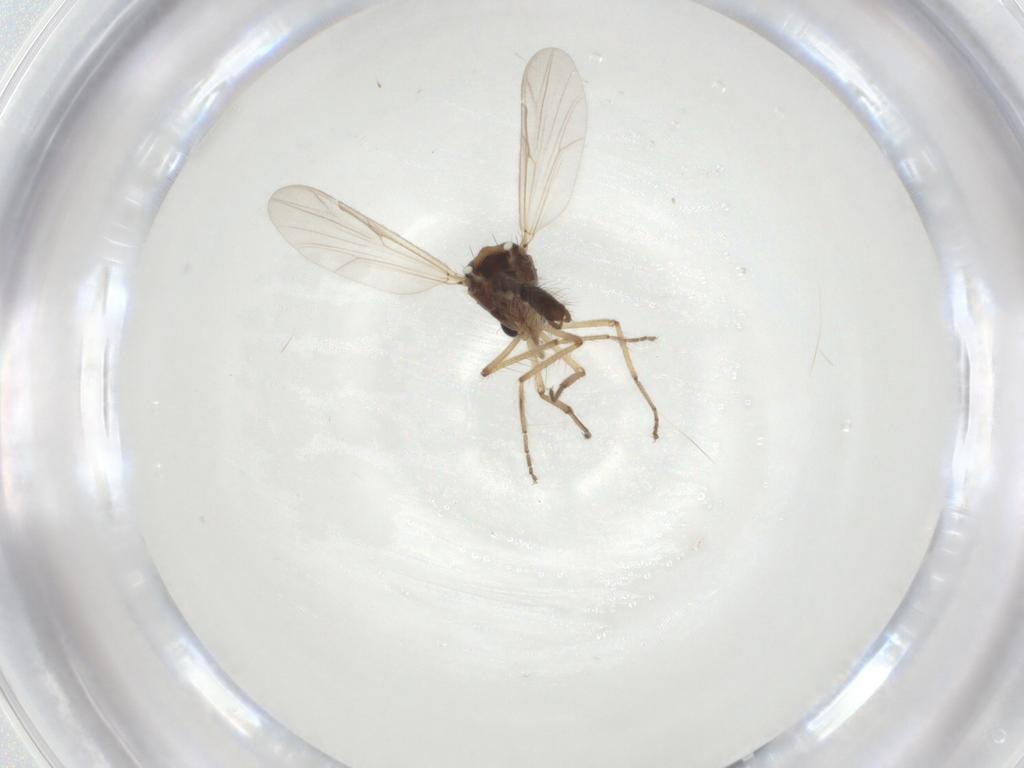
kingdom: Animalia
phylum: Arthropoda
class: Insecta
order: Diptera
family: Ceratopogonidae
